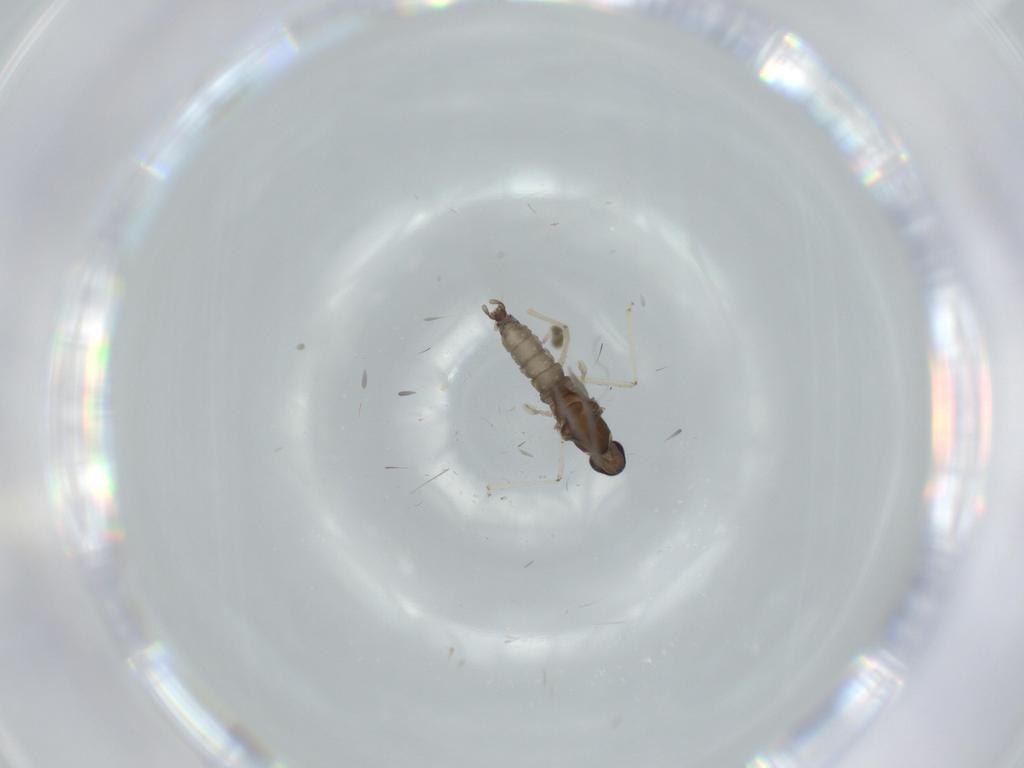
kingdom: Animalia
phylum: Arthropoda
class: Insecta
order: Diptera
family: Cecidomyiidae
